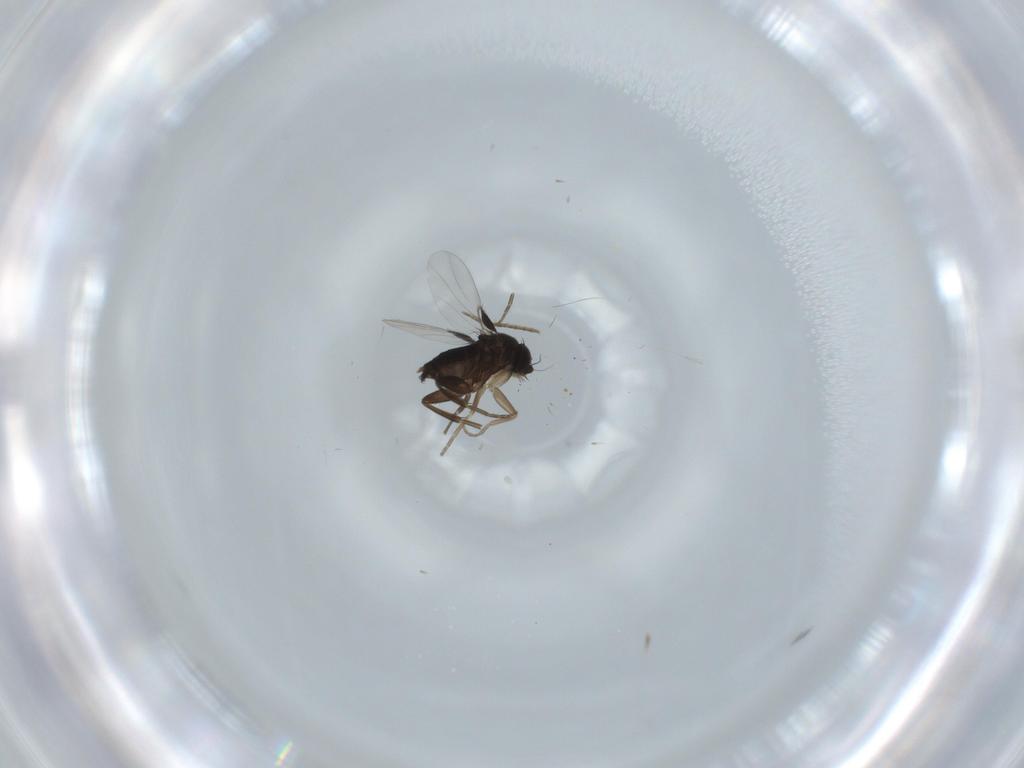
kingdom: Animalia
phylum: Arthropoda
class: Insecta
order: Diptera
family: Phoridae
